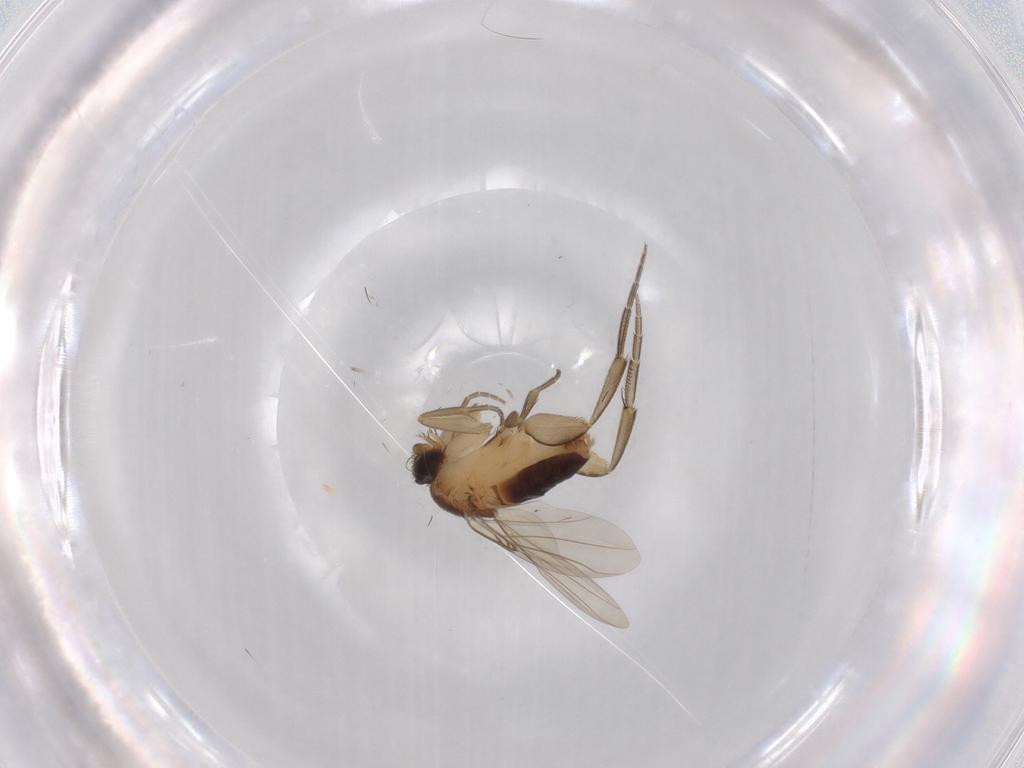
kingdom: Animalia
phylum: Arthropoda
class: Insecta
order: Diptera
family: Phoridae
